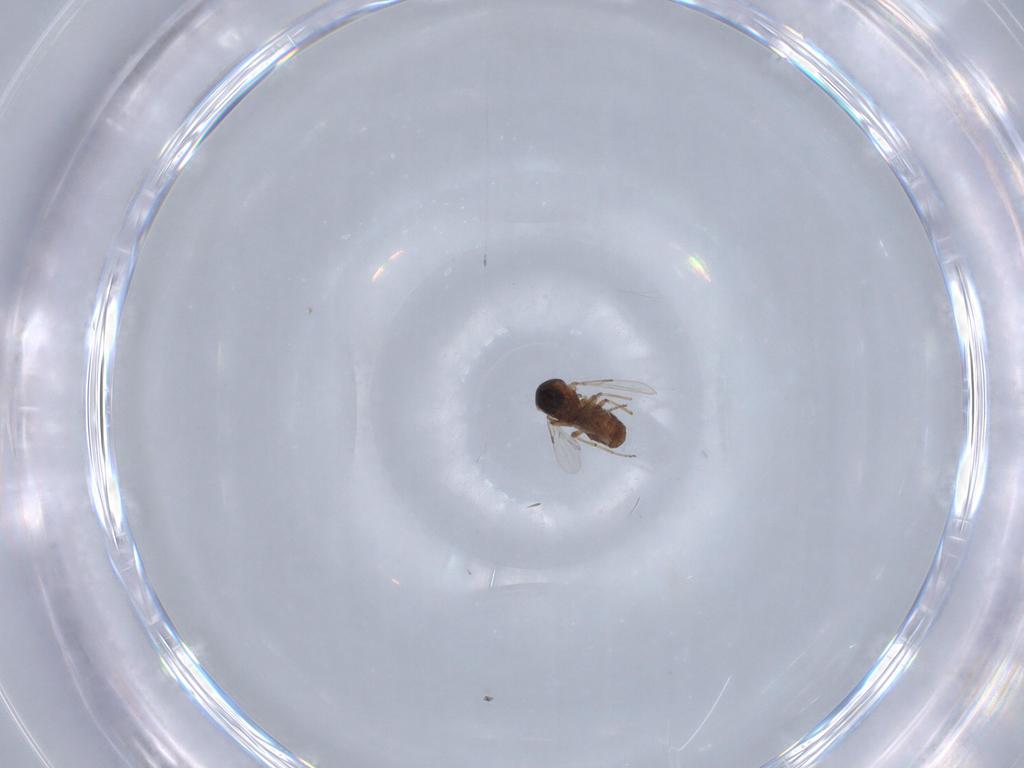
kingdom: Animalia
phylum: Arthropoda
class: Insecta
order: Diptera
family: Ceratopogonidae
